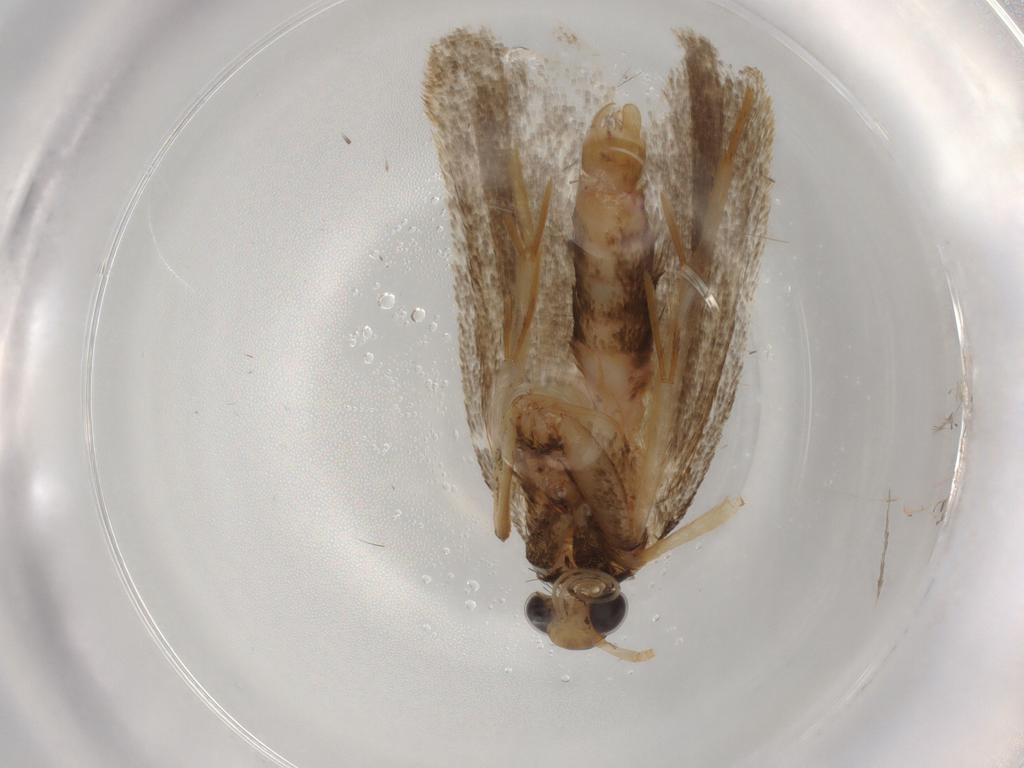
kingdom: Animalia
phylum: Arthropoda
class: Insecta
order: Lepidoptera
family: Lecithoceridae
